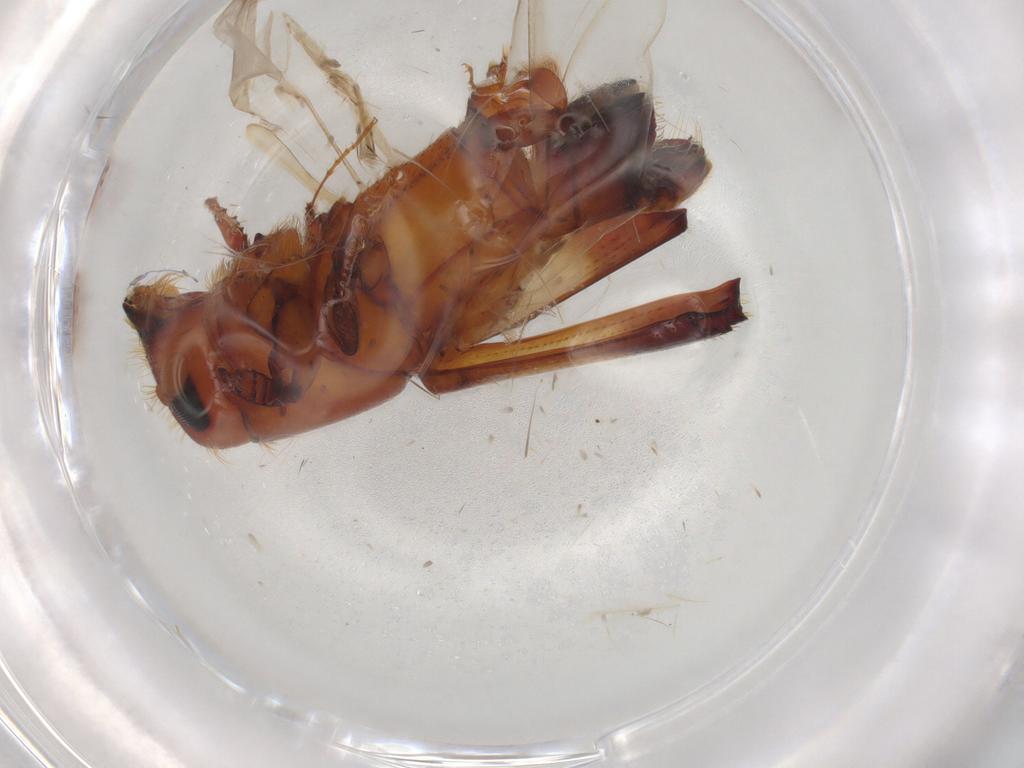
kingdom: Animalia
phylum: Arthropoda
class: Insecta
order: Coleoptera
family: Curculionidae
